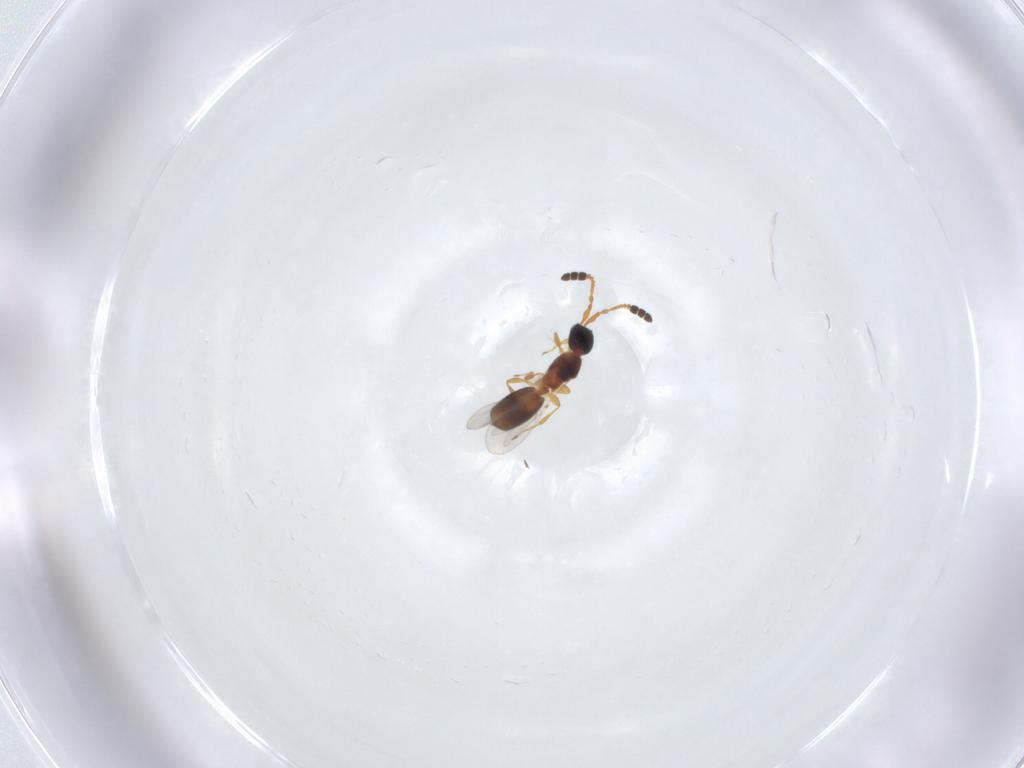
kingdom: Animalia
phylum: Arthropoda
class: Insecta
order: Hymenoptera
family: Diapriidae
